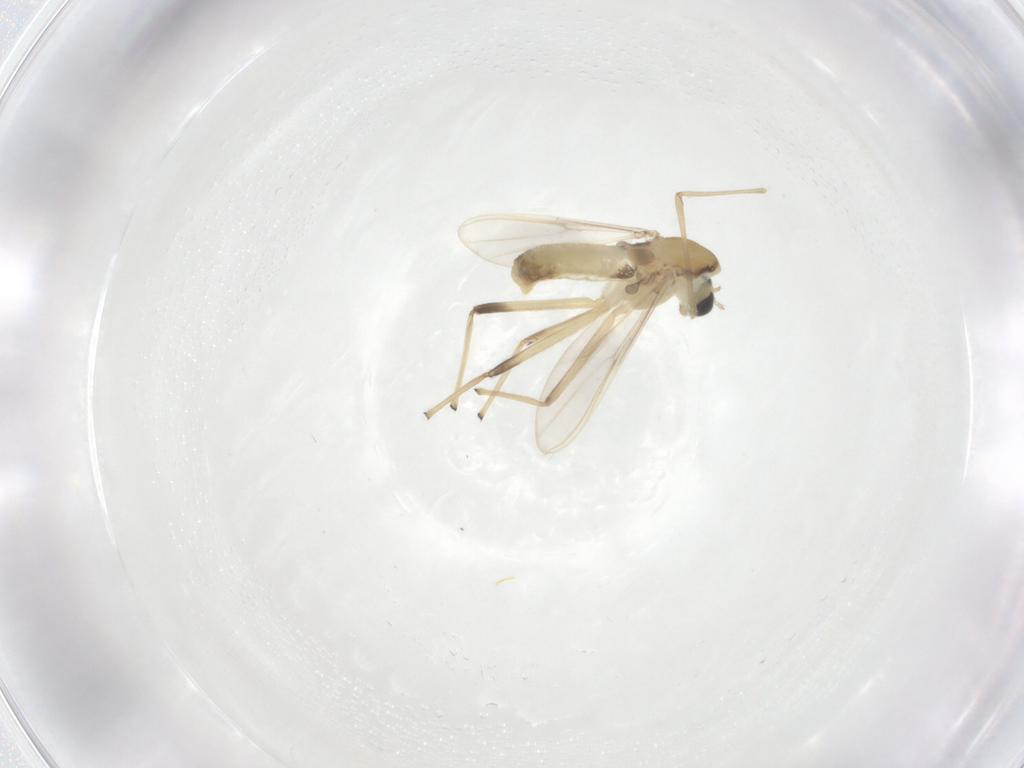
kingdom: Animalia
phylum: Arthropoda
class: Insecta
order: Diptera
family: Chironomidae
